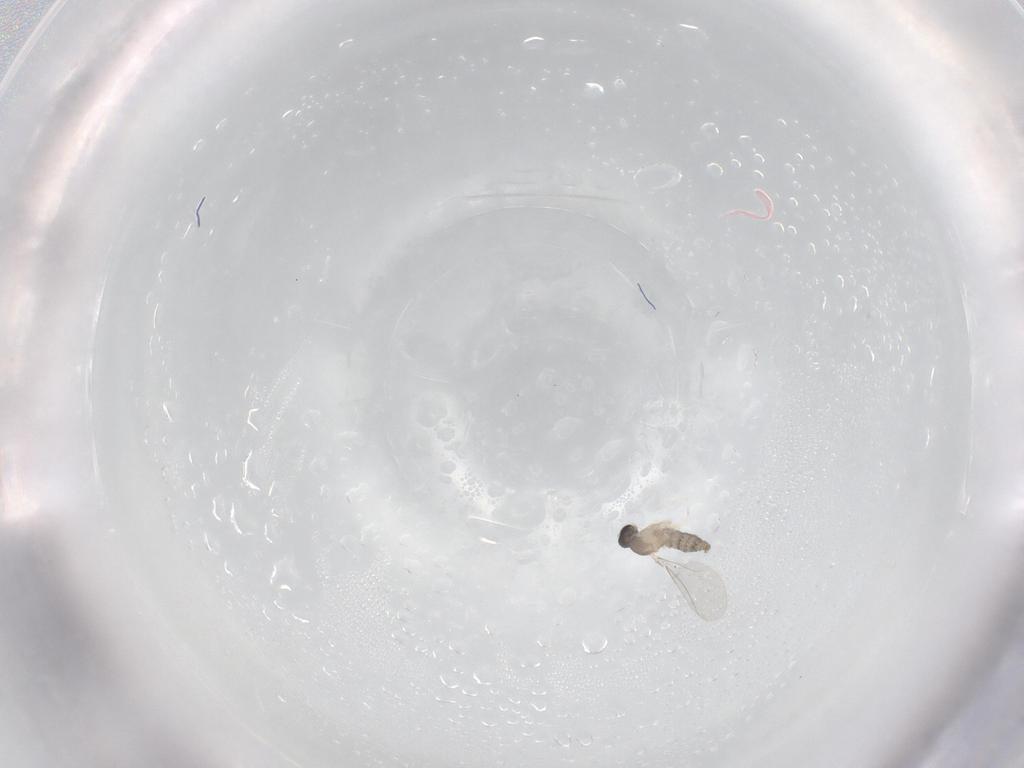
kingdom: Animalia
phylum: Arthropoda
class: Insecta
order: Diptera
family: Cecidomyiidae
